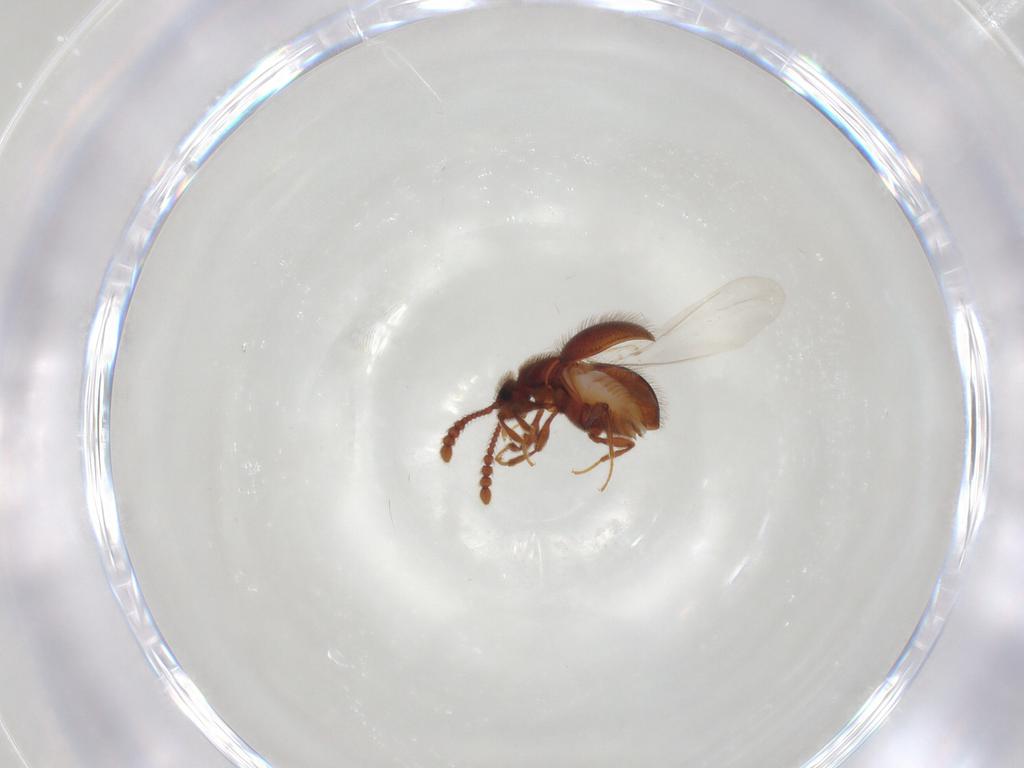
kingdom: Animalia
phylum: Arthropoda
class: Insecta
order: Coleoptera
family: Staphylinidae
